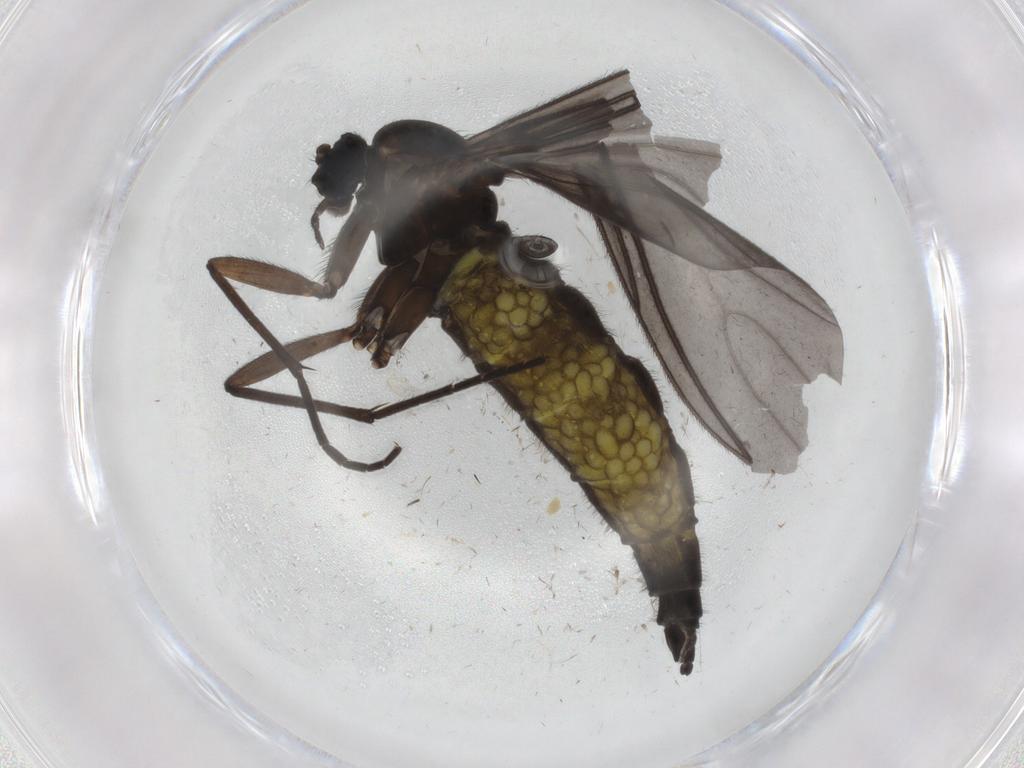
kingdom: Animalia
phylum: Arthropoda
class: Insecta
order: Diptera
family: Sciaridae
